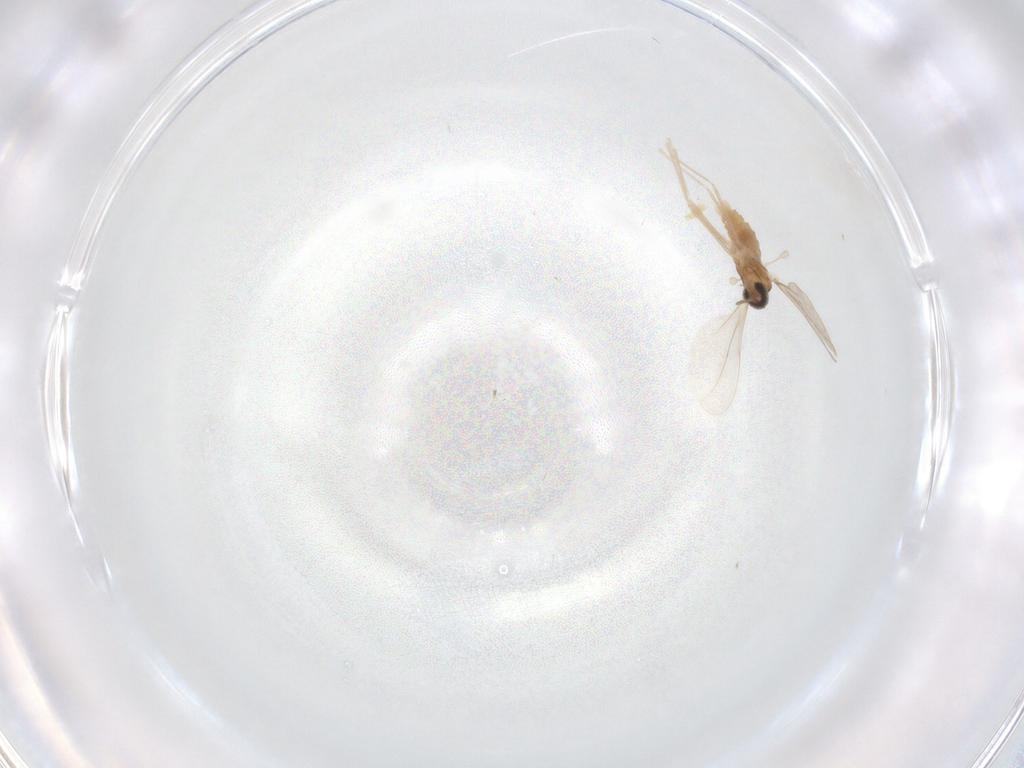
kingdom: Animalia
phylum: Arthropoda
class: Insecta
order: Diptera
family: Cecidomyiidae
